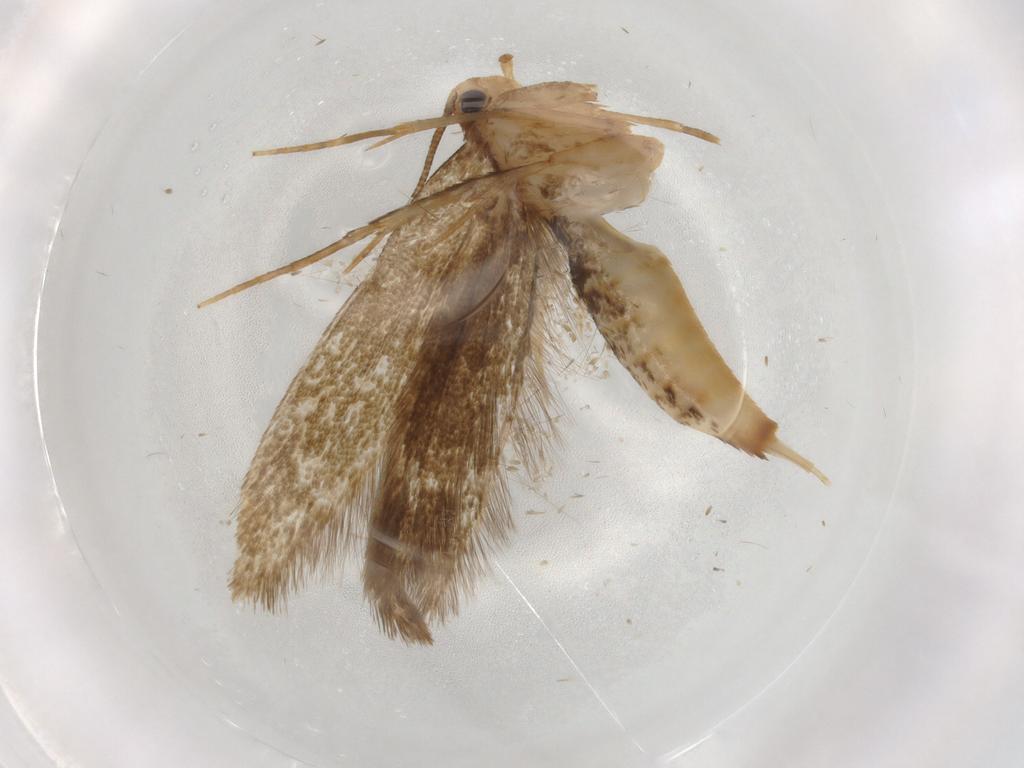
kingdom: Animalia
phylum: Arthropoda
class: Insecta
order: Lepidoptera
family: Tineidae
